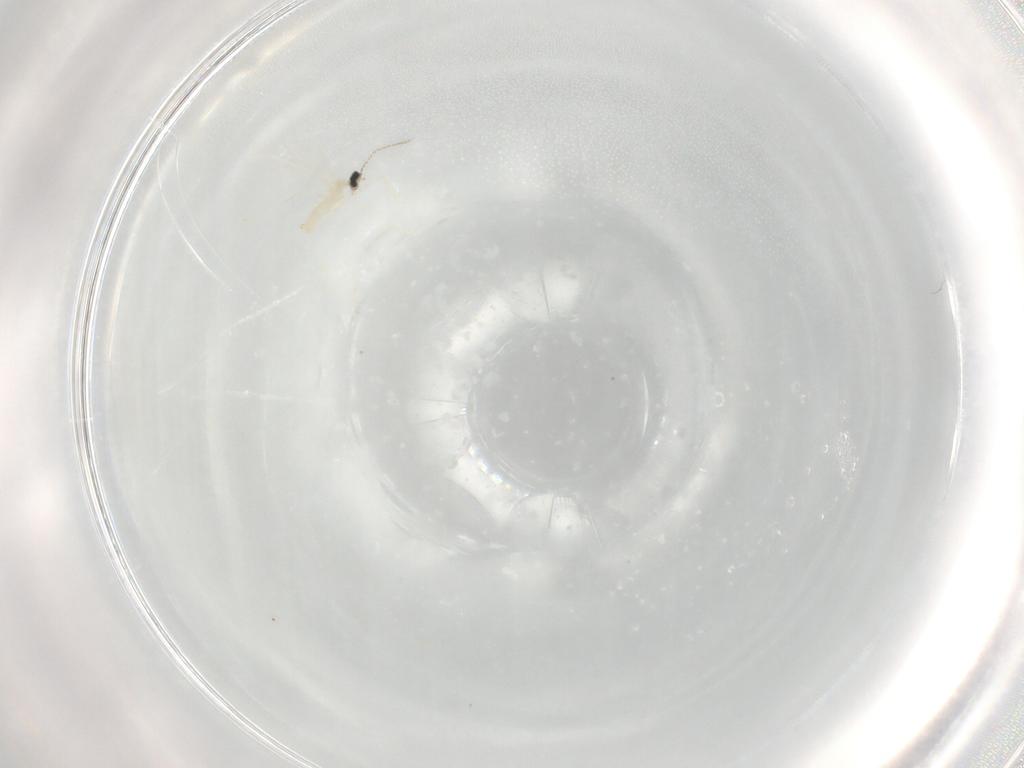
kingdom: Animalia
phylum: Arthropoda
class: Insecta
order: Diptera
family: Cecidomyiidae
